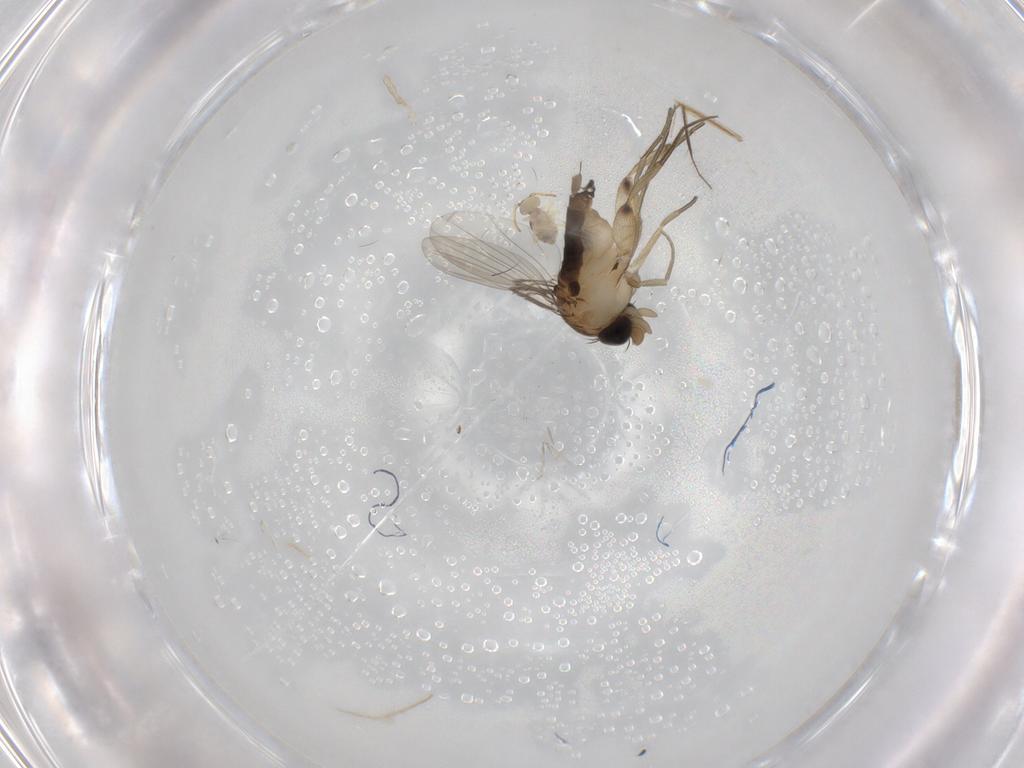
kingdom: Animalia
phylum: Arthropoda
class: Insecta
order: Diptera
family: Phoridae
